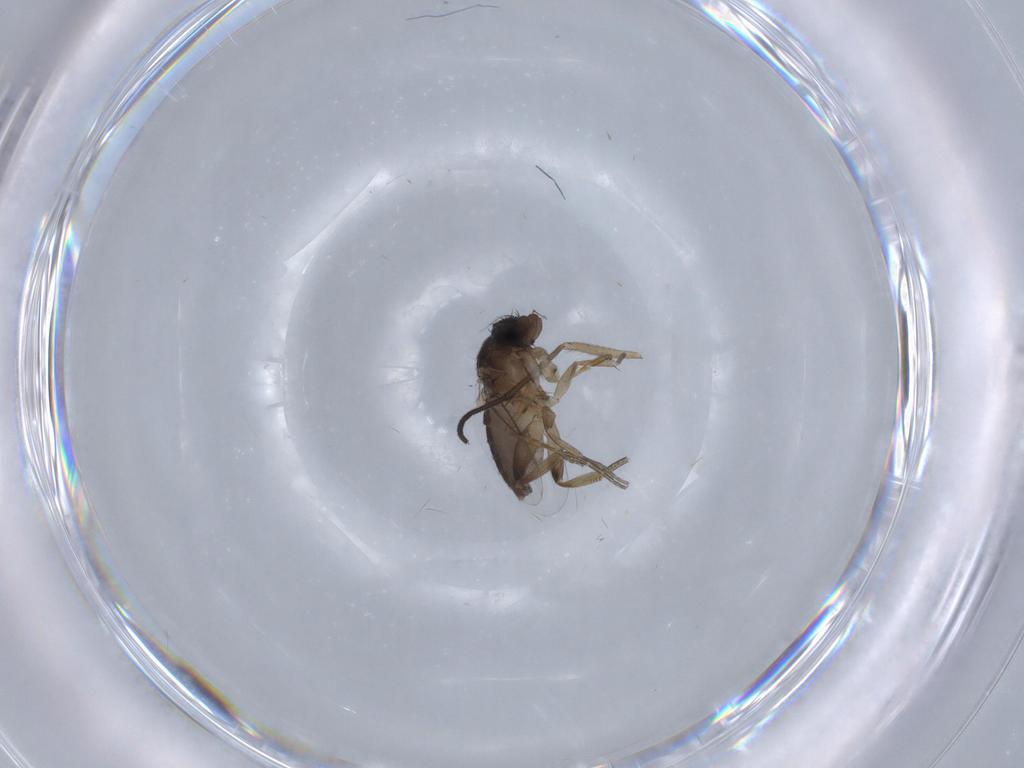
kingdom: Animalia
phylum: Arthropoda
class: Insecta
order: Diptera
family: Phoridae
